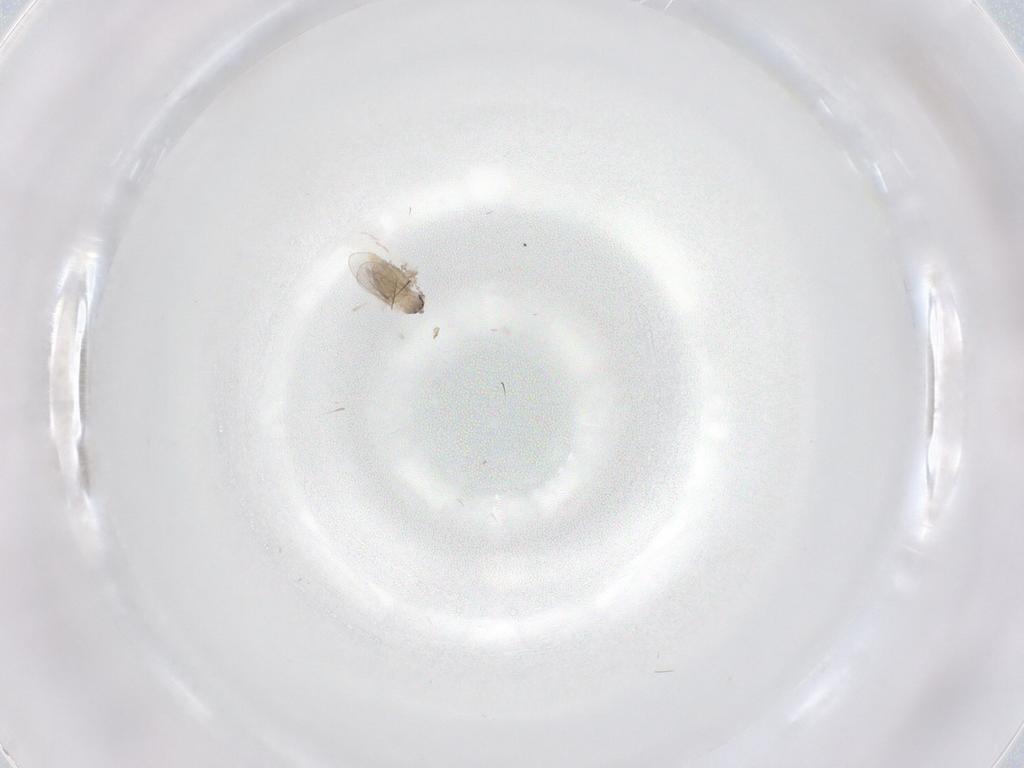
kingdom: Animalia
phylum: Arthropoda
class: Insecta
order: Diptera
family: Cecidomyiidae
